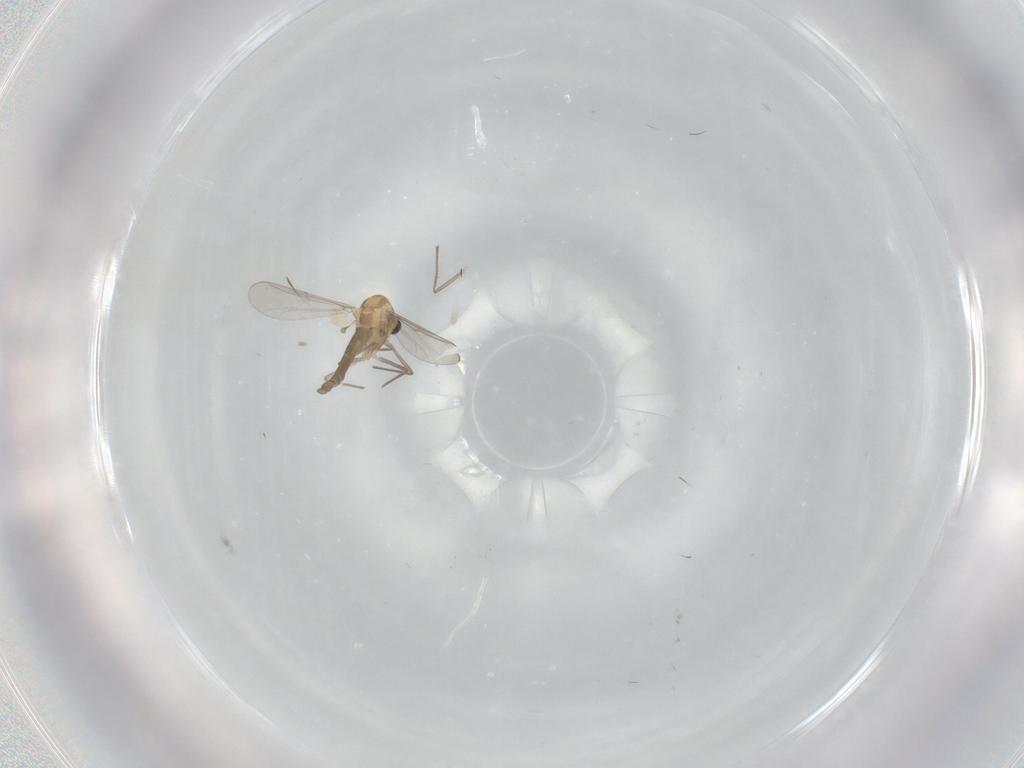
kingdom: Animalia
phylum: Arthropoda
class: Insecta
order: Diptera
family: Chironomidae
